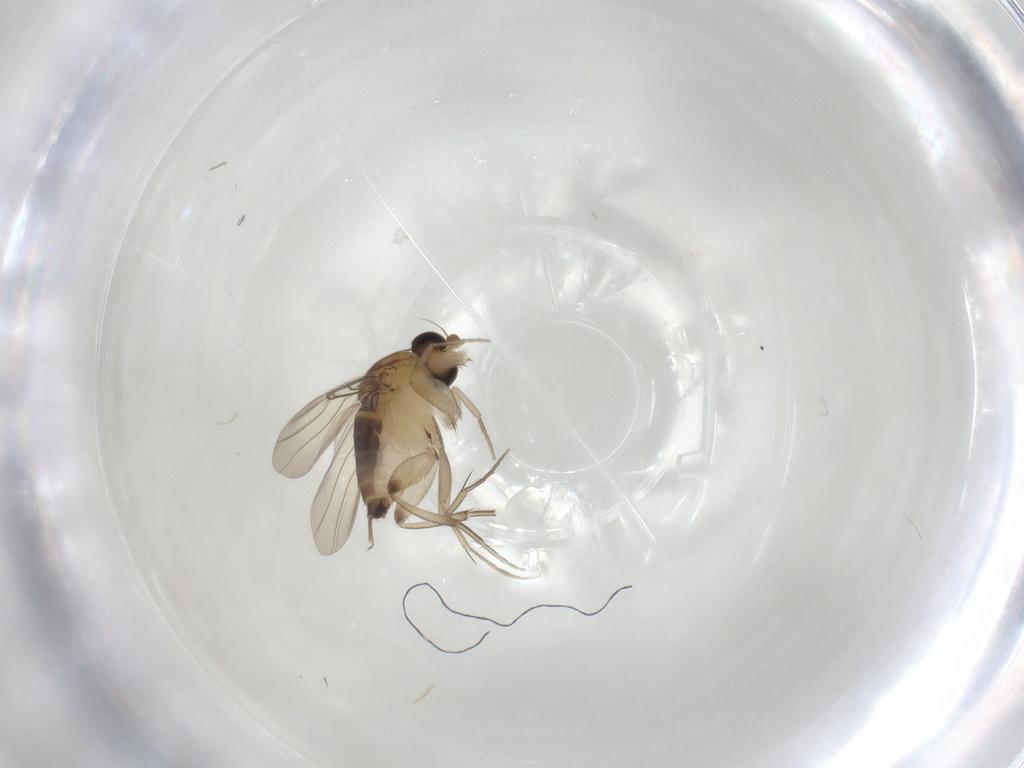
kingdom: Animalia
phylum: Arthropoda
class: Insecta
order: Diptera
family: Phoridae
